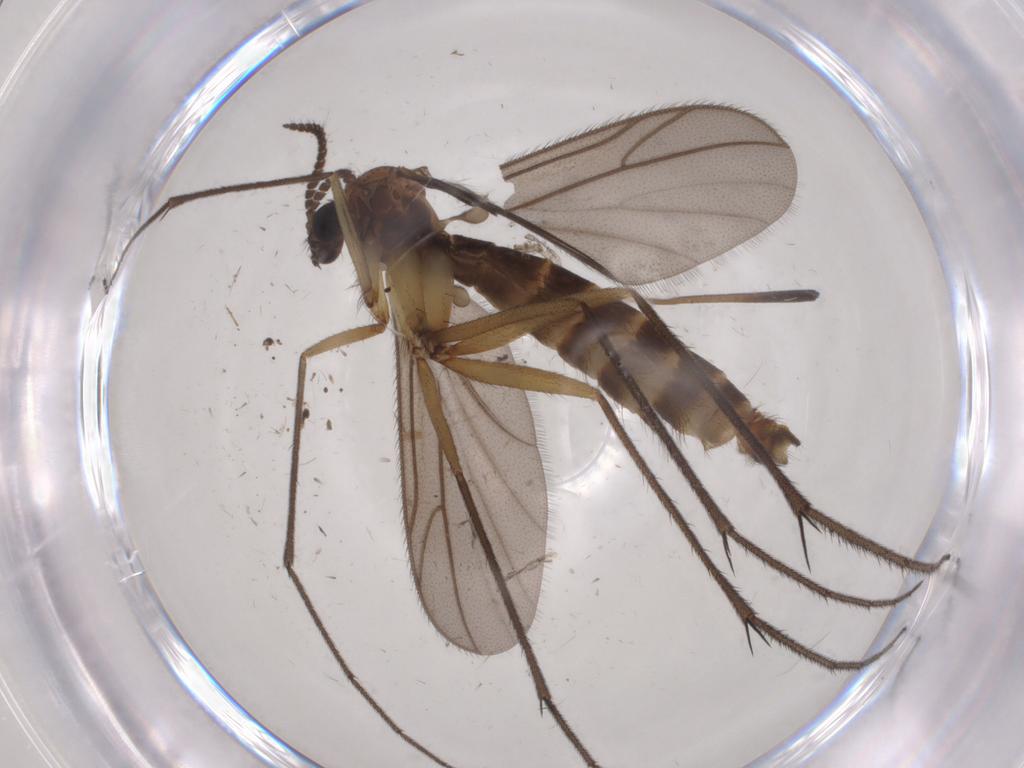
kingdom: Animalia
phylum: Arthropoda
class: Insecta
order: Diptera
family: Ditomyiidae
